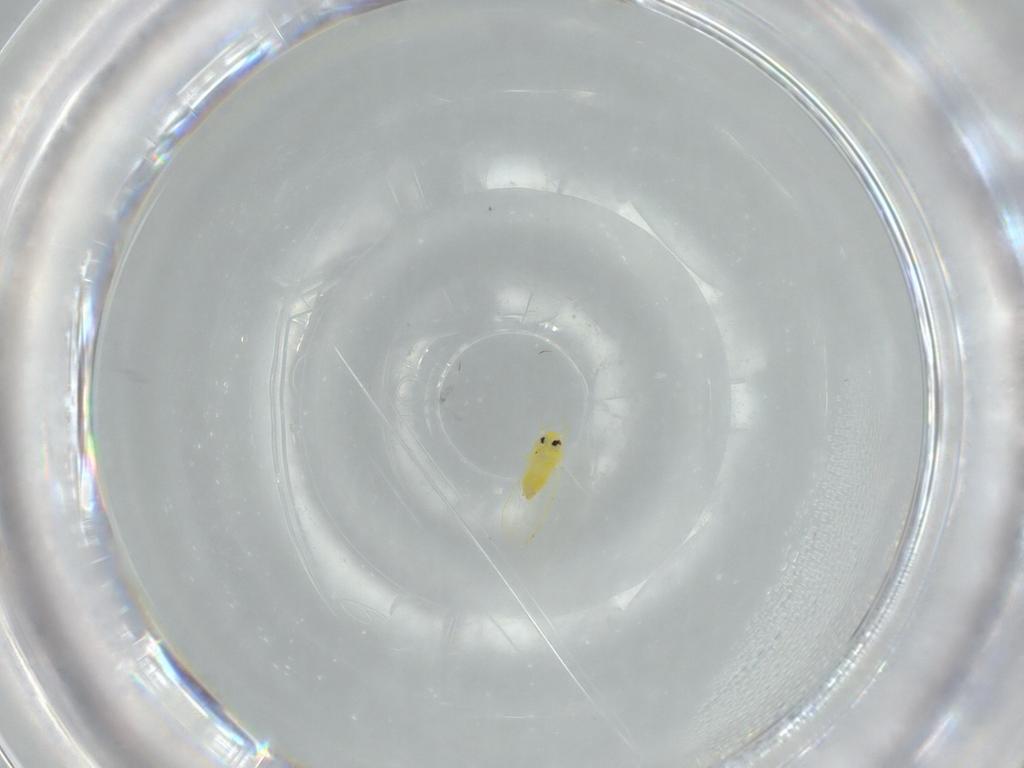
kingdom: Animalia
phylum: Arthropoda
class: Insecta
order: Hemiptera
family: Aleyrodidae
